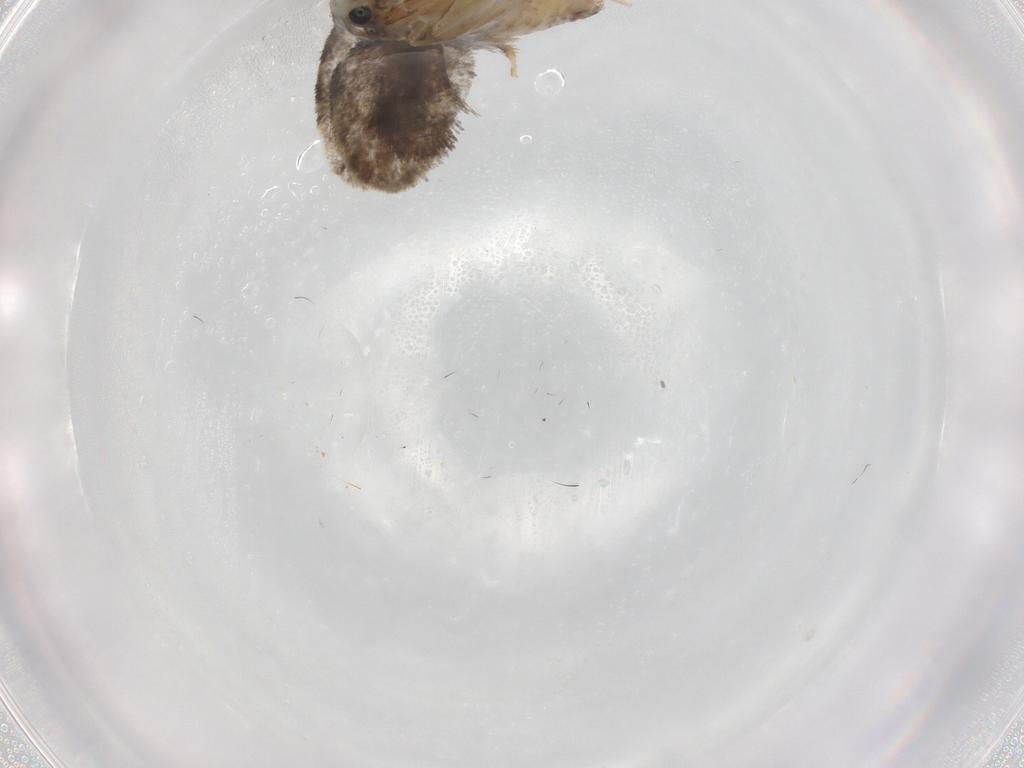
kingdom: Animalia
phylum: Arthropoda
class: Insecta
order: Lepidoptera
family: Psychidae
